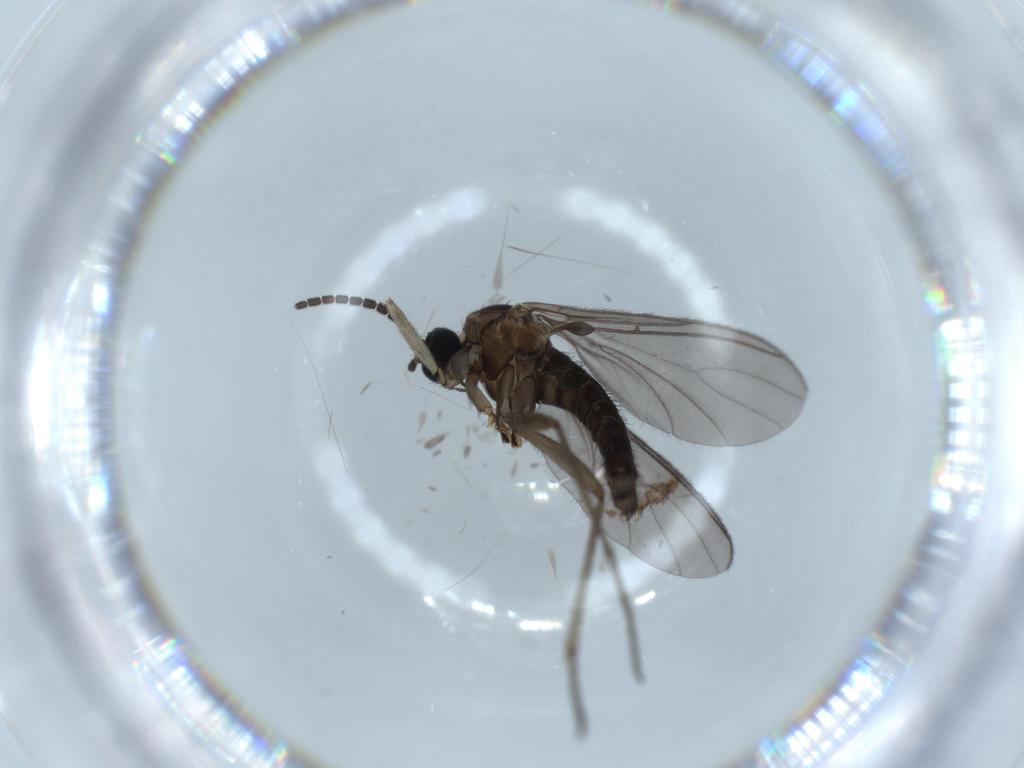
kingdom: Animalia
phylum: Arthropoda
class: Insecta
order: Diptera
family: Sciaridae
